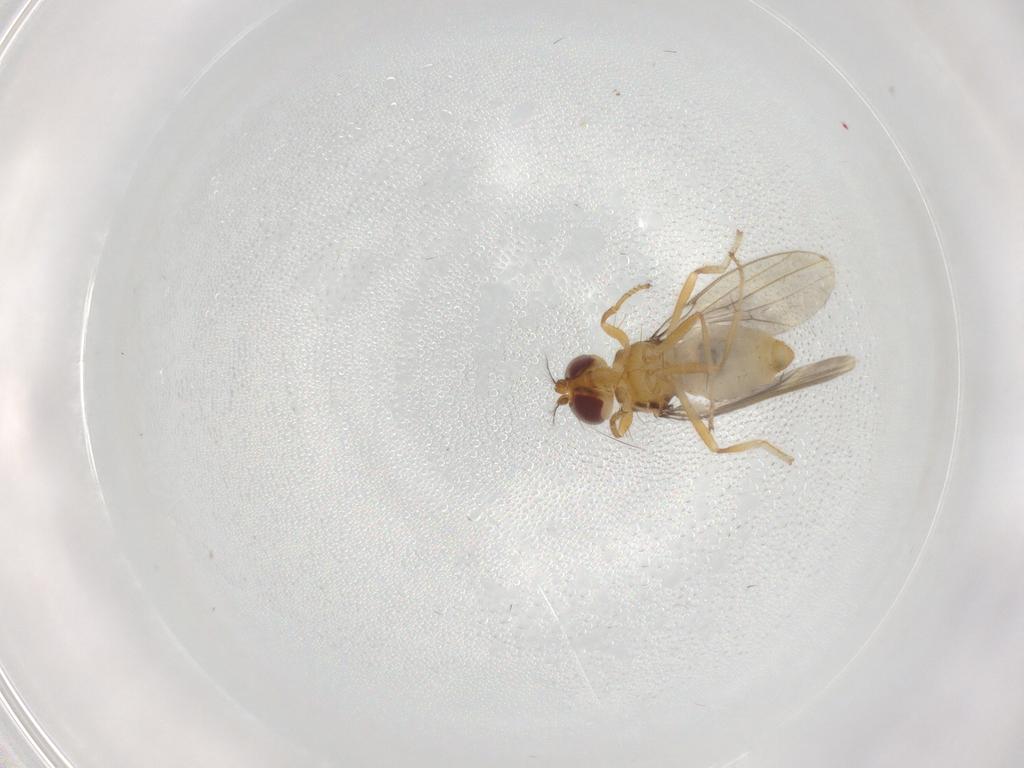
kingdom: Animalia
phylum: Arthropoda
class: Insecta
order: Diptera
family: Periscelididae
